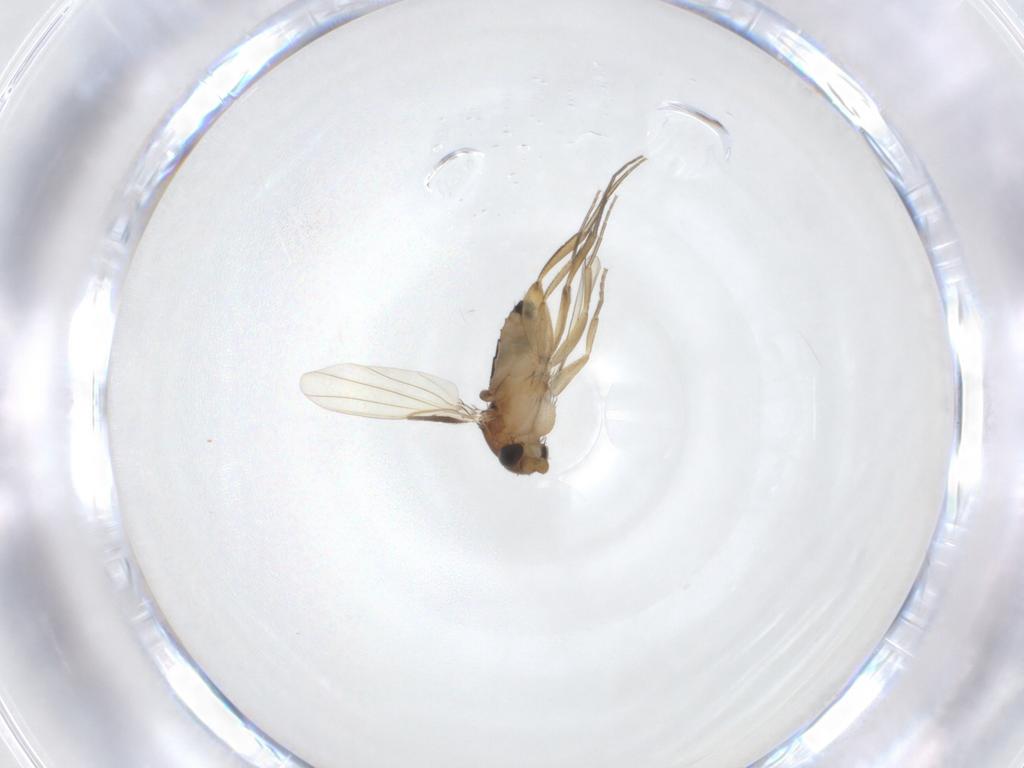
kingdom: Animalia
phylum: Arthropoda
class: Insecta
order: Diptera
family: Phoridae
